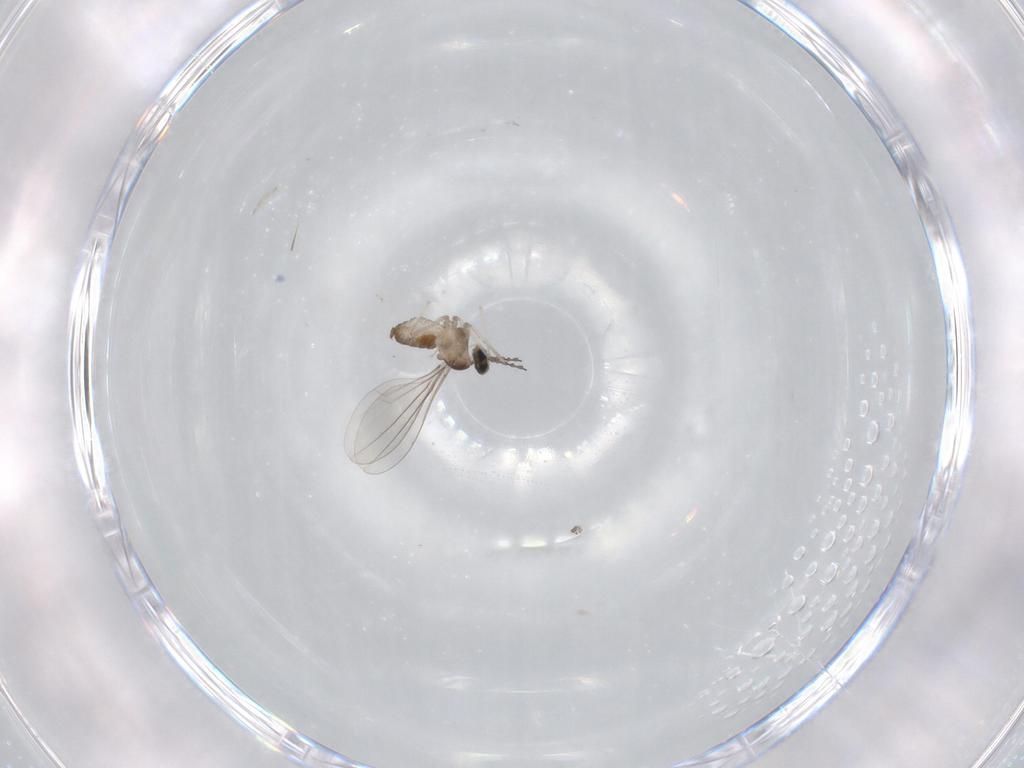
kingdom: Animalia
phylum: Arthropoda
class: Insecta
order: Diptera
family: Cecidomyiidae
